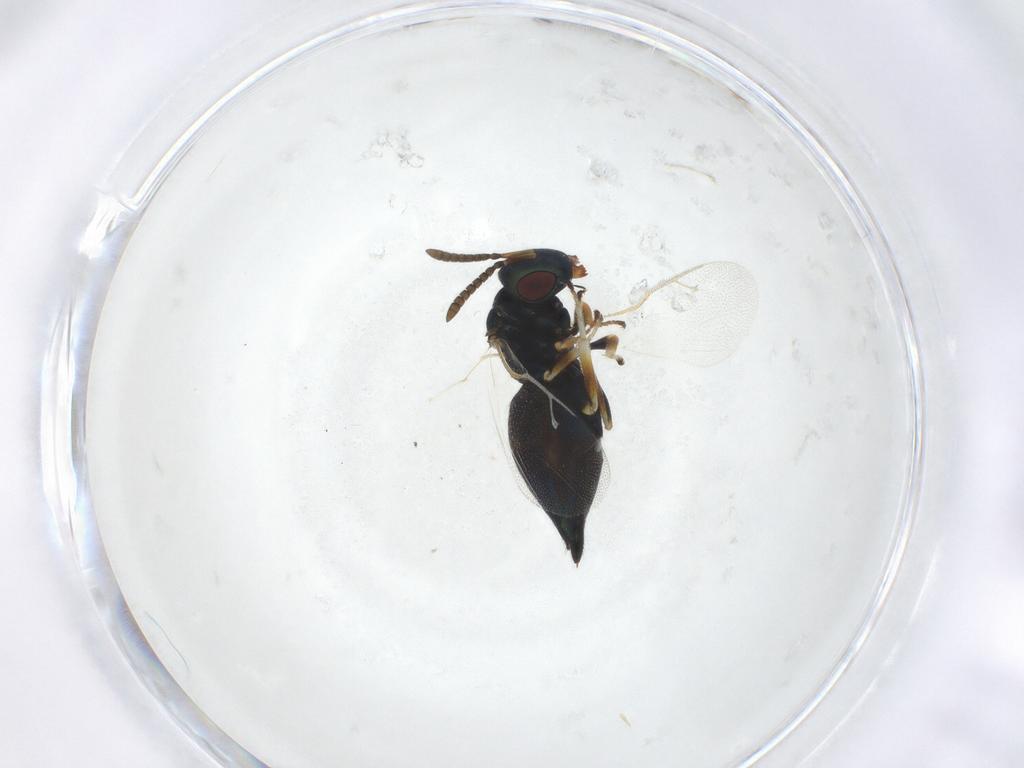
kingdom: Animalia
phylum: Arthropoda
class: Insecta
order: Hymenoptera
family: Pteromalidae
